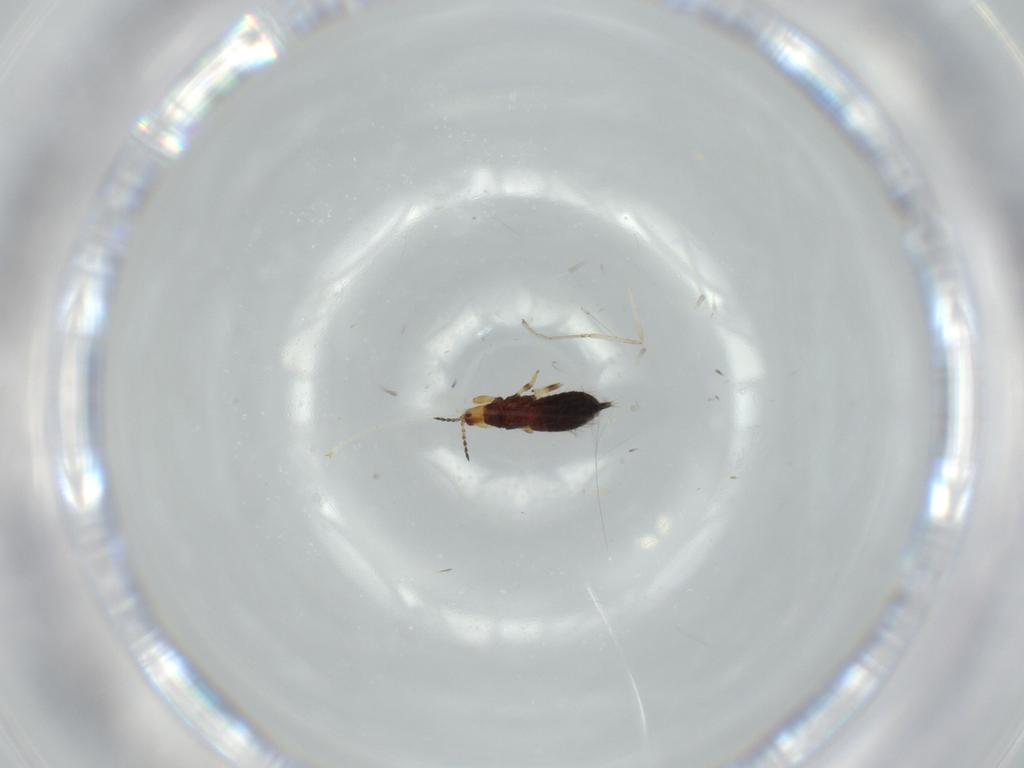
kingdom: Animalia
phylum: Arthropoda
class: Insecta
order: Thysanoptera
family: Phlaeothripidae
